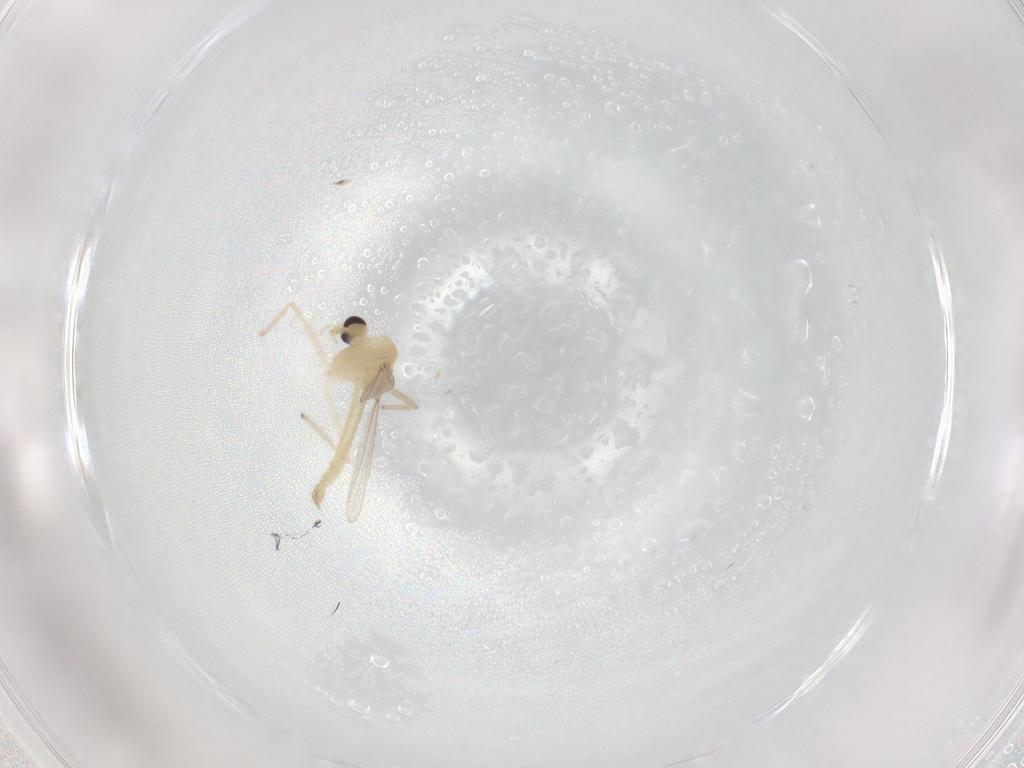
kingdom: Animalia
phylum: Arthropoda
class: Insecta
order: Diptera
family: Chironomidae
